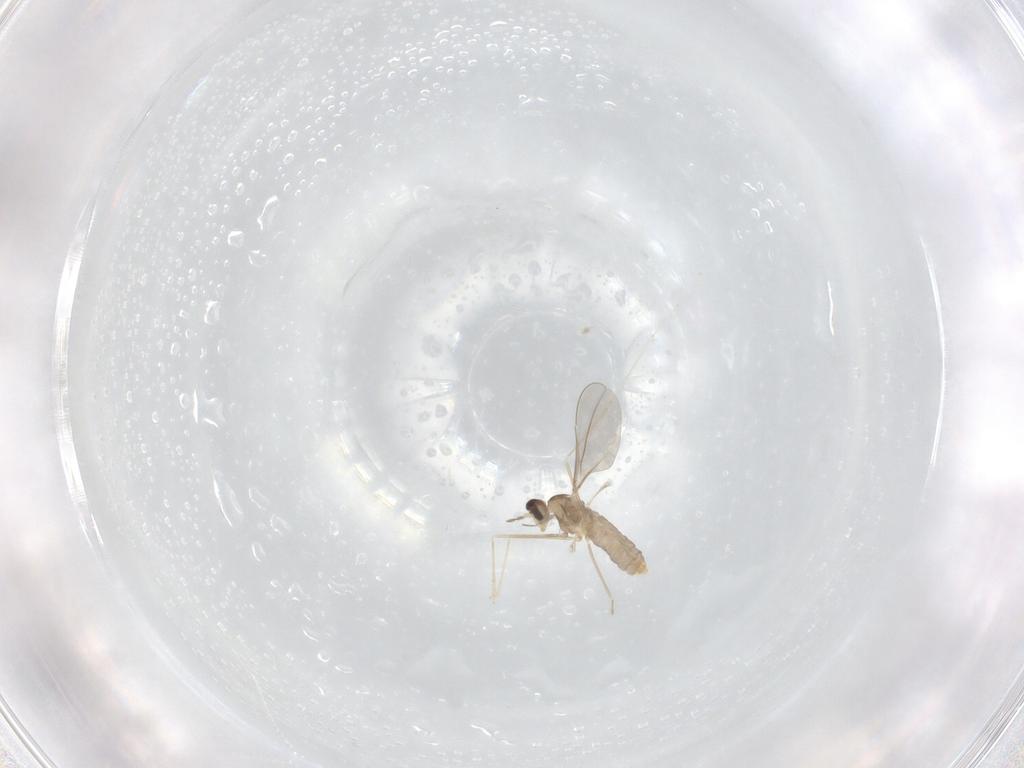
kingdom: Animalia
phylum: Arthropoda
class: Insecta
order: Diptera
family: Cecidomyiidae
